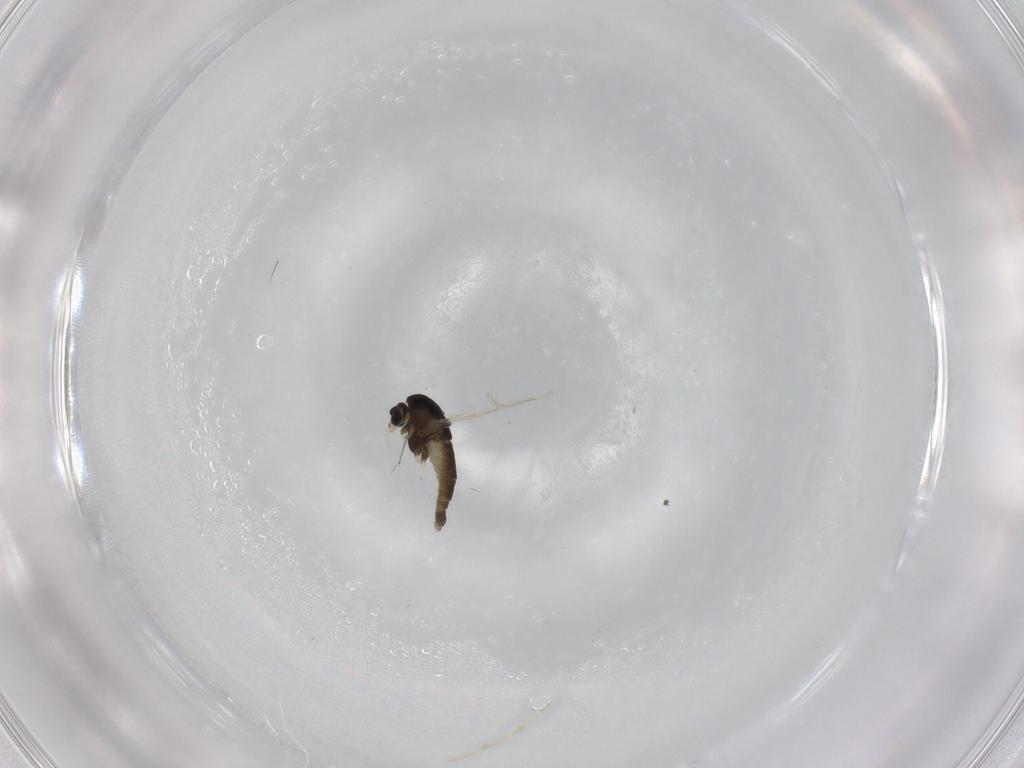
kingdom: Animalia
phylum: Arthropoda
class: Insecta
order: Diptera
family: Chironomidae
